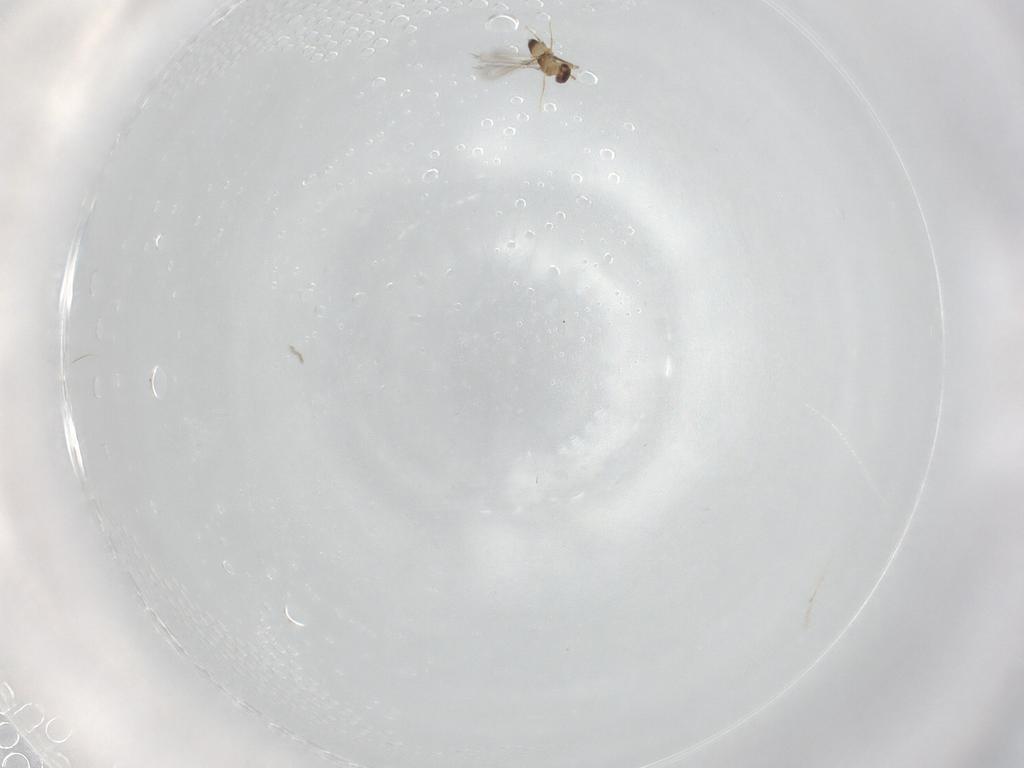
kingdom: Animalia
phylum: Arthropoda
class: Insecta
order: Hymenoptera
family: Mymaridae
